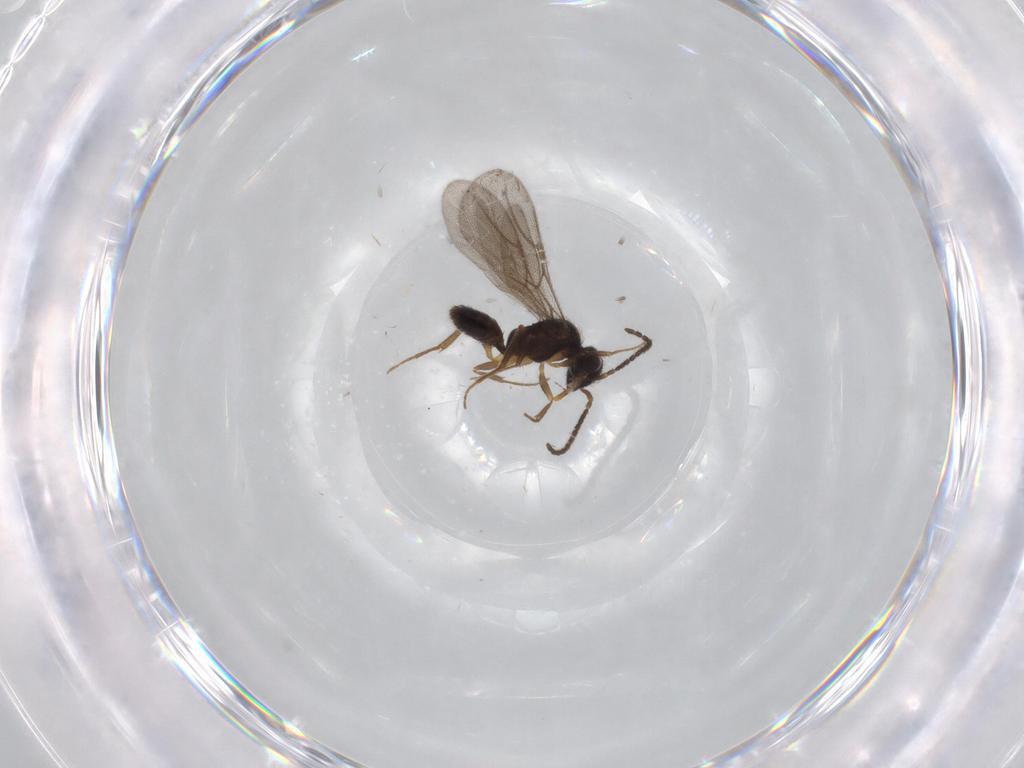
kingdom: Animalia
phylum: Arthropoda
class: Insecta
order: Hymenoptera
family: Bethylidae
